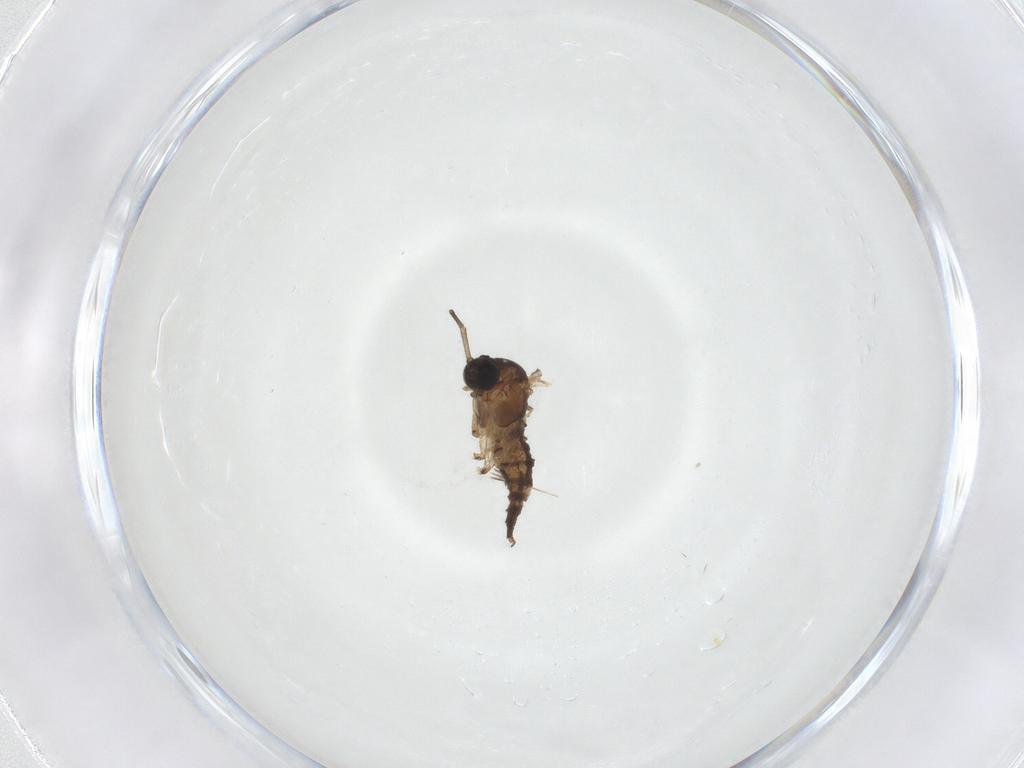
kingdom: Animalia
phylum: Arthropoda
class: Insecta
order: Diptera
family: Sciaridae
